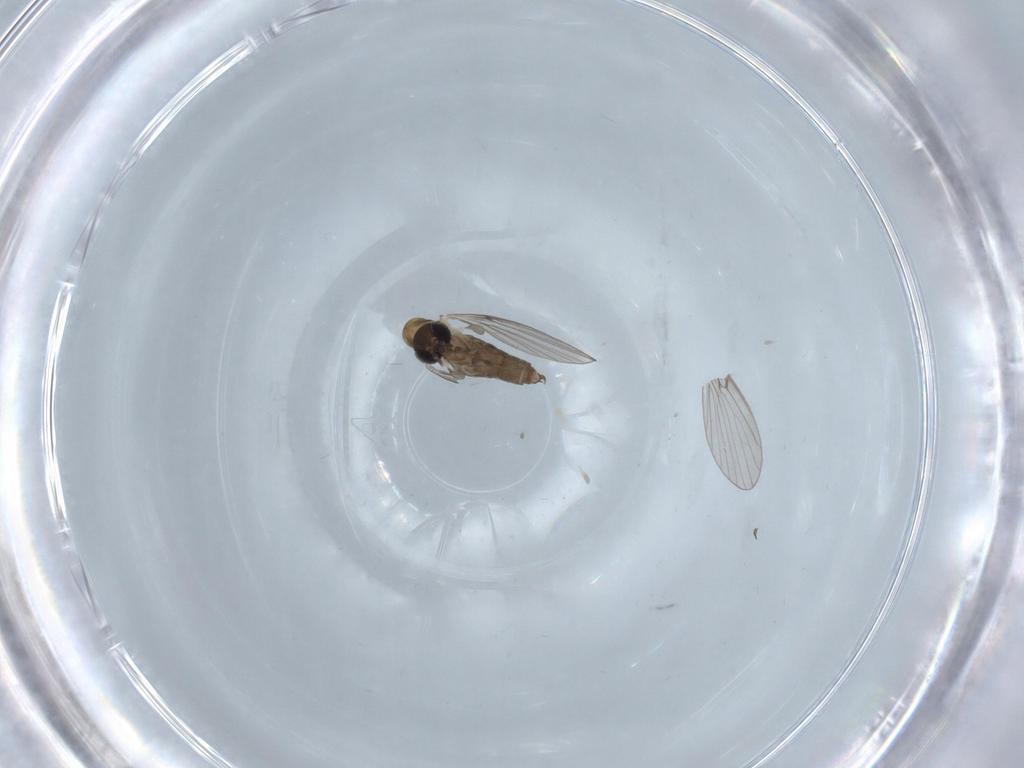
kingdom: Animalia
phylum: Arthropoda
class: Insecta
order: Diptera
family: Psychodidae
